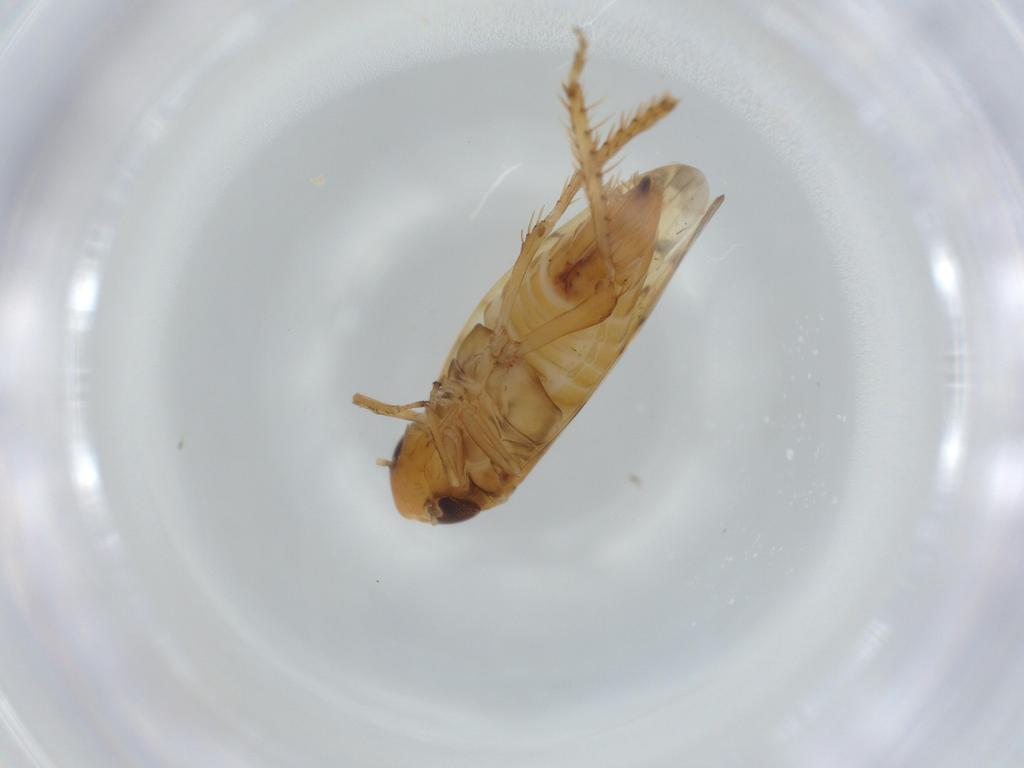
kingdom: Animalia
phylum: Arthropoda
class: Insecta
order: Hemiptera
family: Cicadellidae
